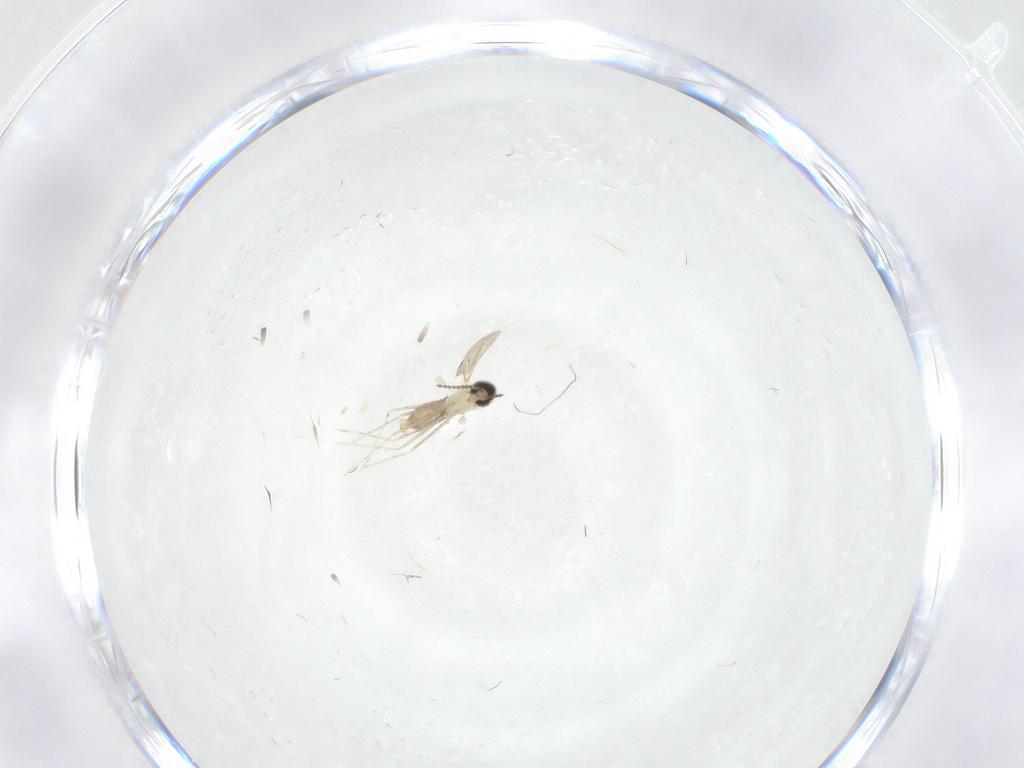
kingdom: Animalia
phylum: Arthropoda
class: Insecta
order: Diptera
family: Cecidomyiidae
